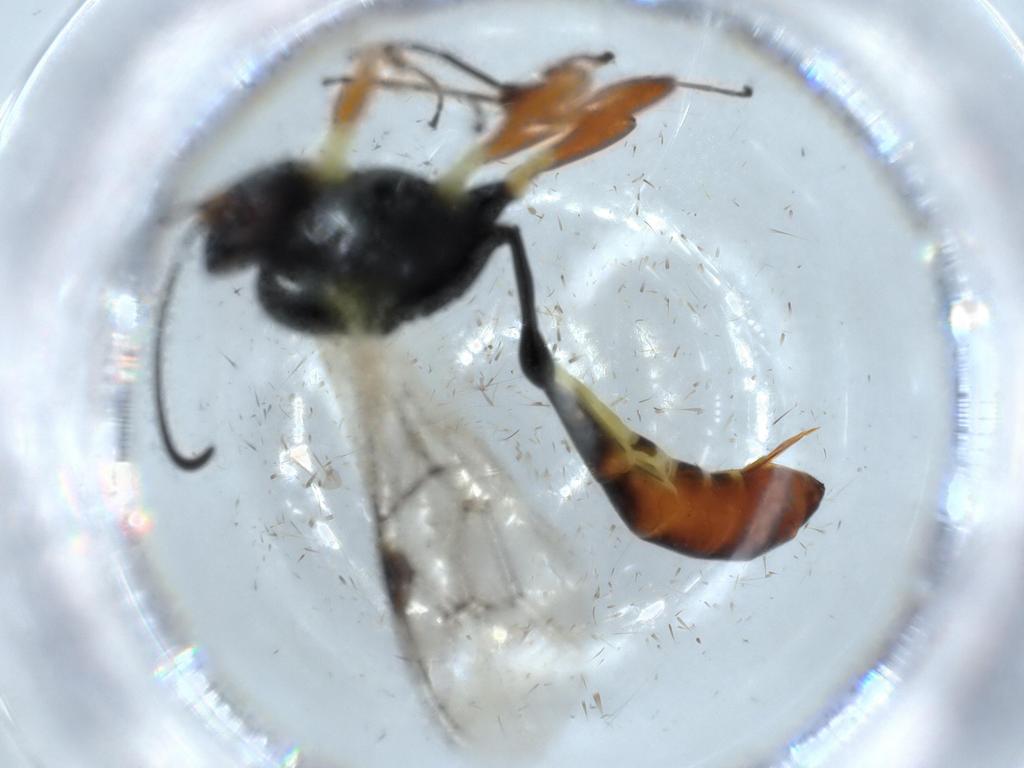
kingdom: Animalia
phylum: Arthropoda
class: Insecta
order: Hymenoptera
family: Ichneumonidae
